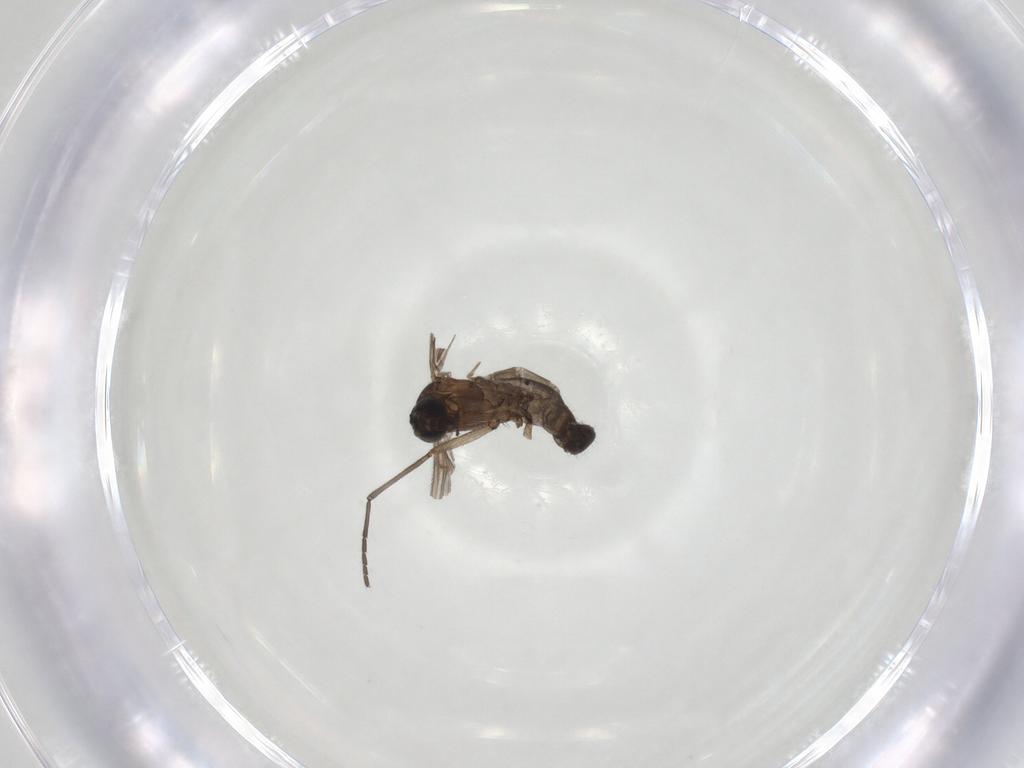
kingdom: Animalia
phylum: Arthropoda
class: Insecta
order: Diptera
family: Sciaridae
